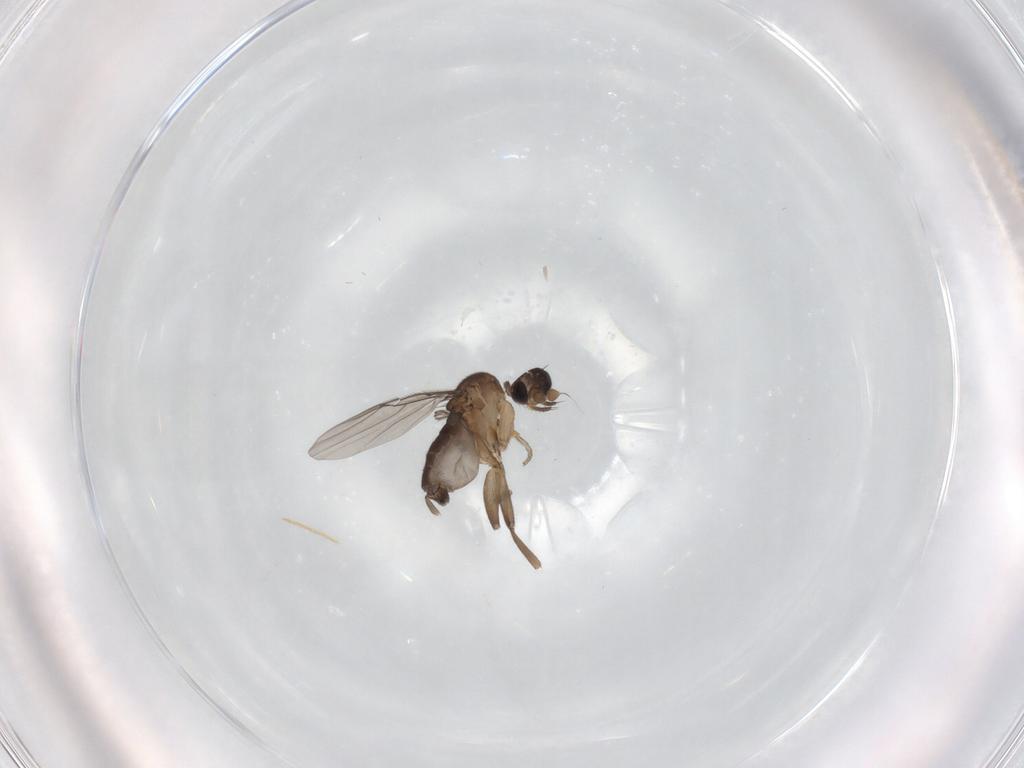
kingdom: Animalia
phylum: Arthropoda
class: Insecta
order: Diptera
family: Phoridae
